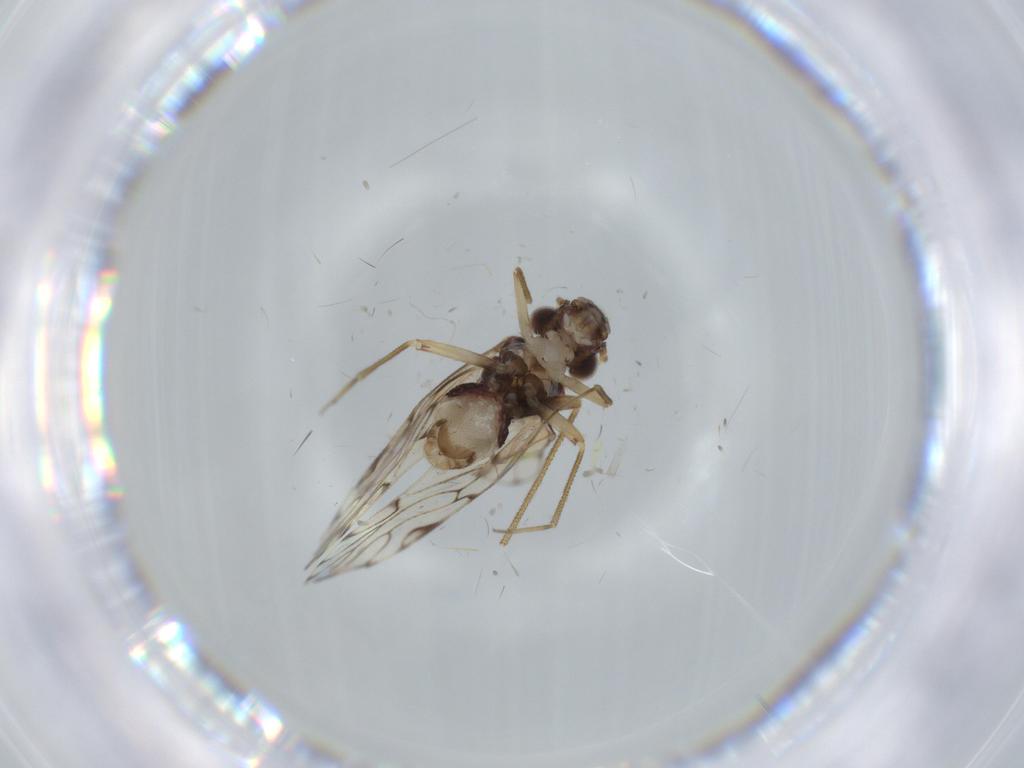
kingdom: Animalia
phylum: Arthropoda
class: Insecta
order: Psocodea
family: Epipsocidae
